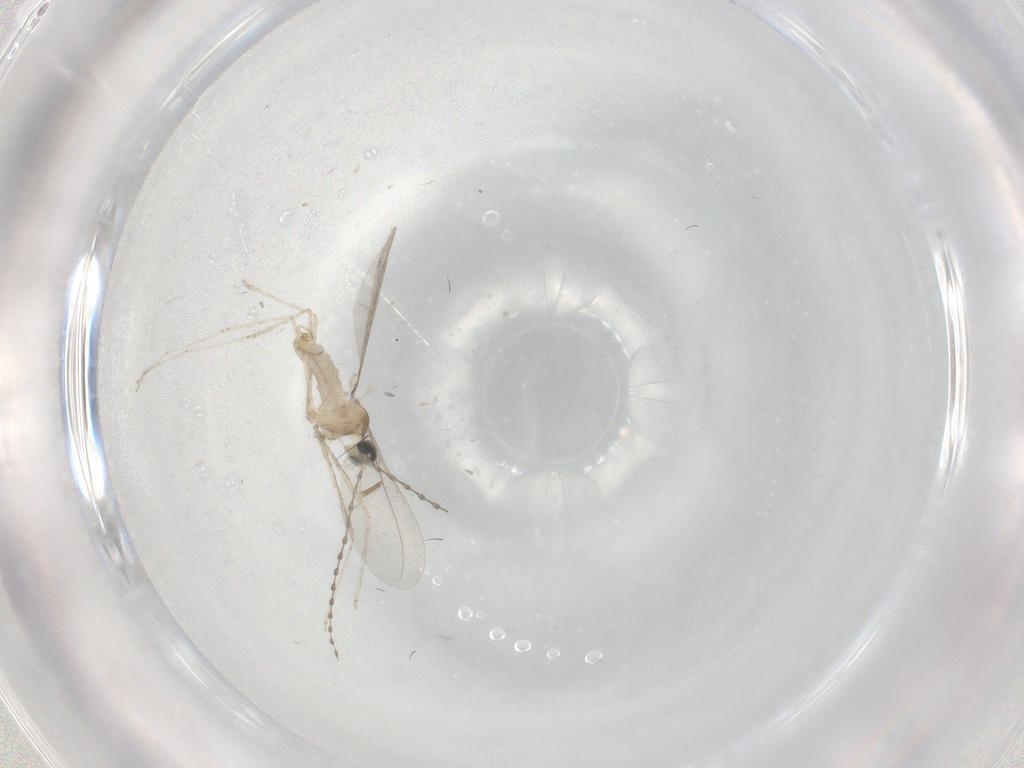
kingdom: Animalia
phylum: Arthropoda
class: Insecta
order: Diptera
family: Cecidomyiidae
